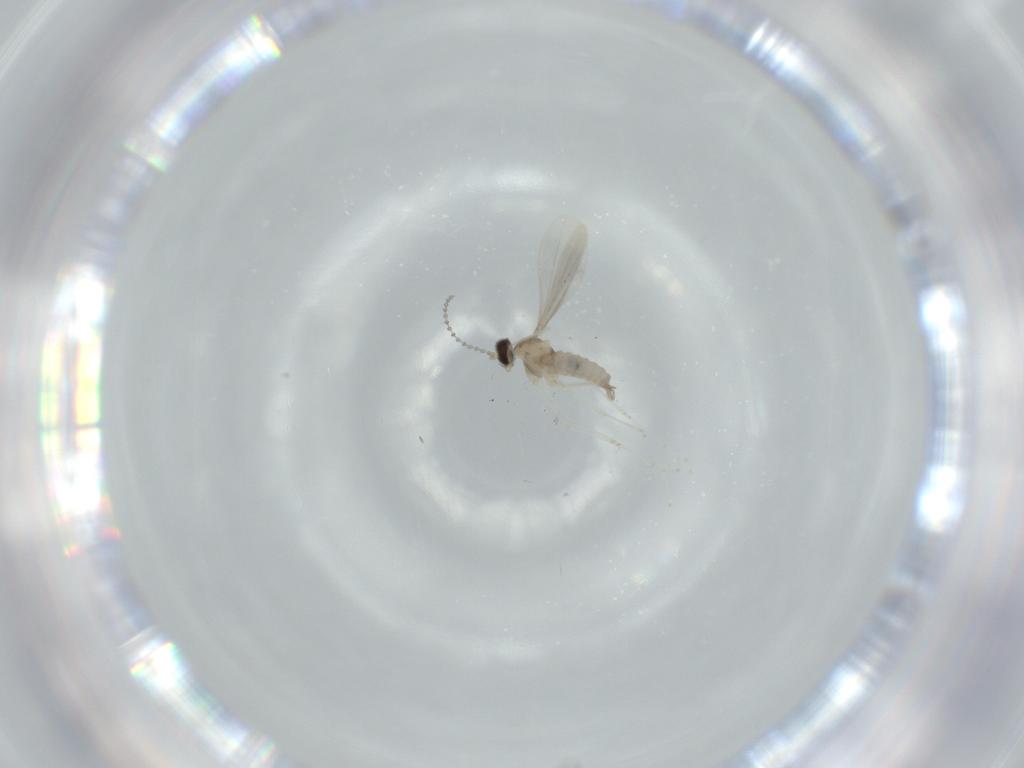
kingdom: Animalia
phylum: Arthropoda
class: Insecta
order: Diptera
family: Cecidomyiidae
